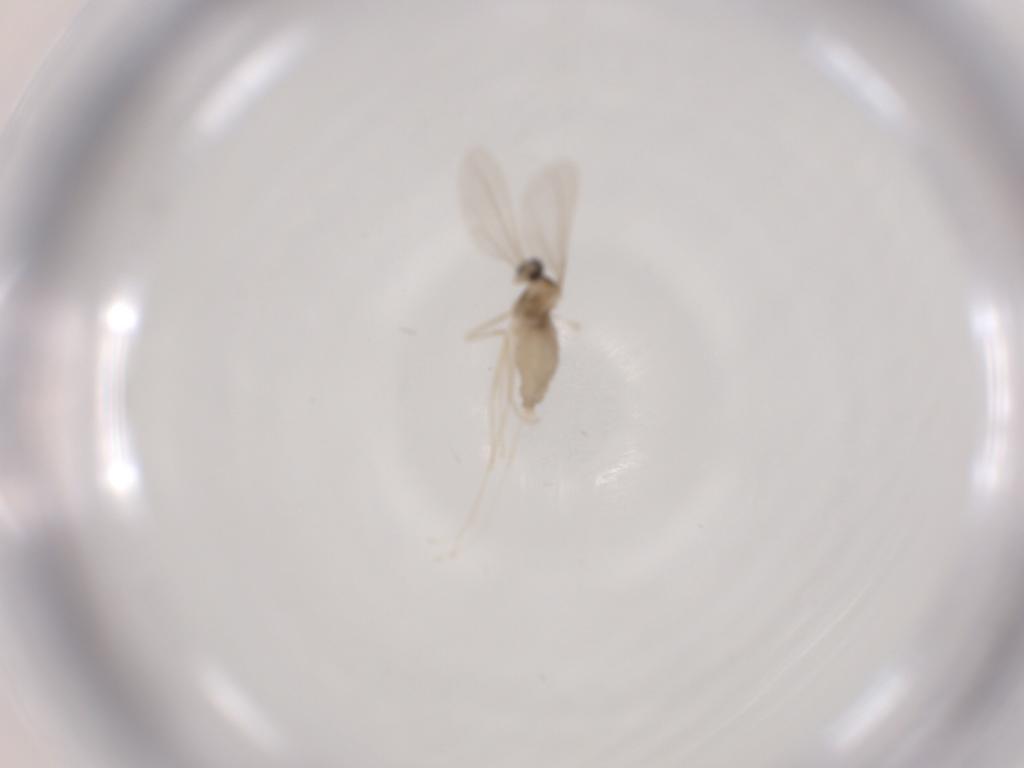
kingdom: Animalia
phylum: Arthropoda
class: Insecta
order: Diptera
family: Cecidomyiidae
